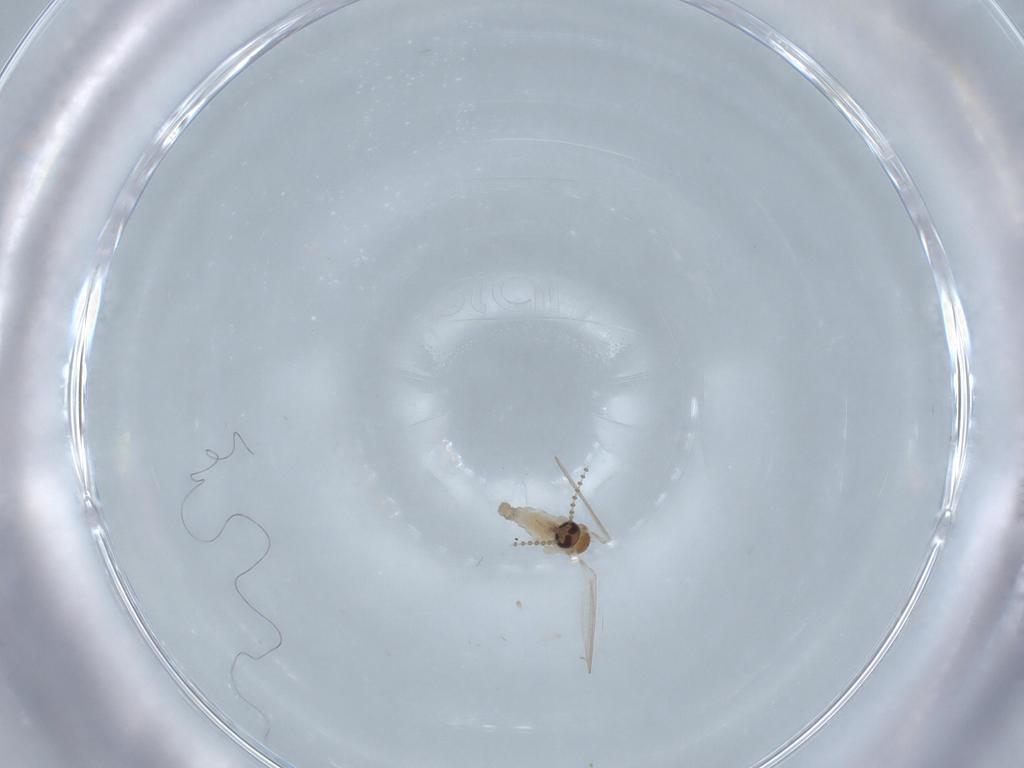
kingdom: Animalia
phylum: Arthropoda
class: Insecta
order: Diptera
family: Psychodidae
